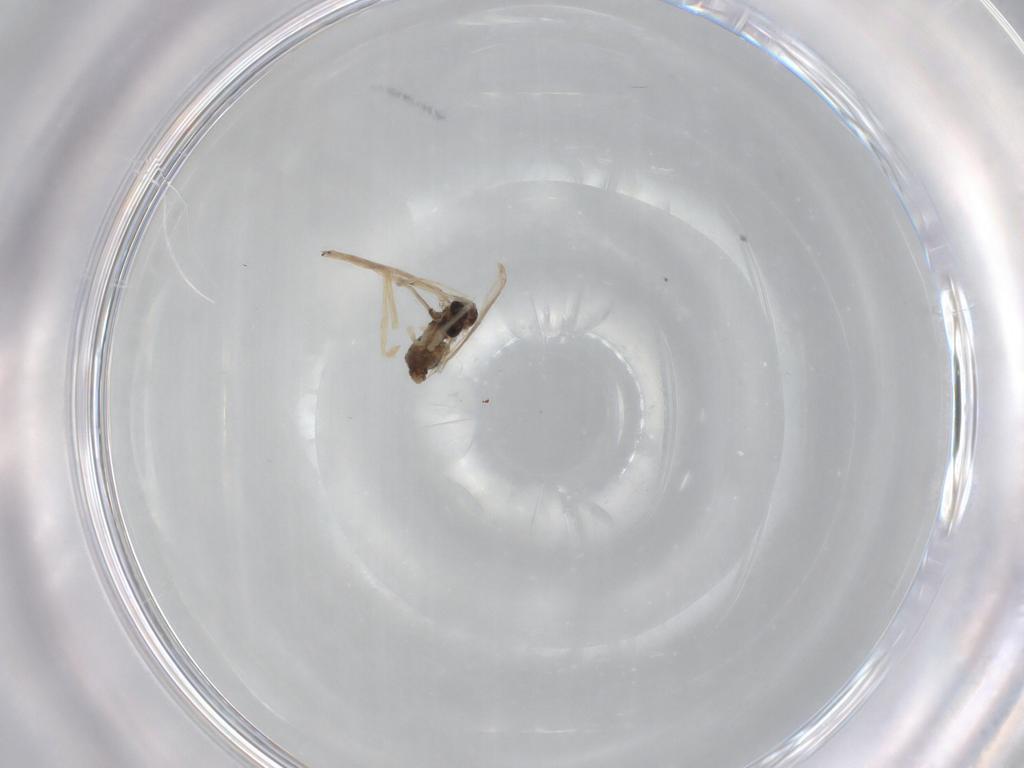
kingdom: Animalia
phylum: Arthropoda
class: Insecta
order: Diptera
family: Chironomidae
